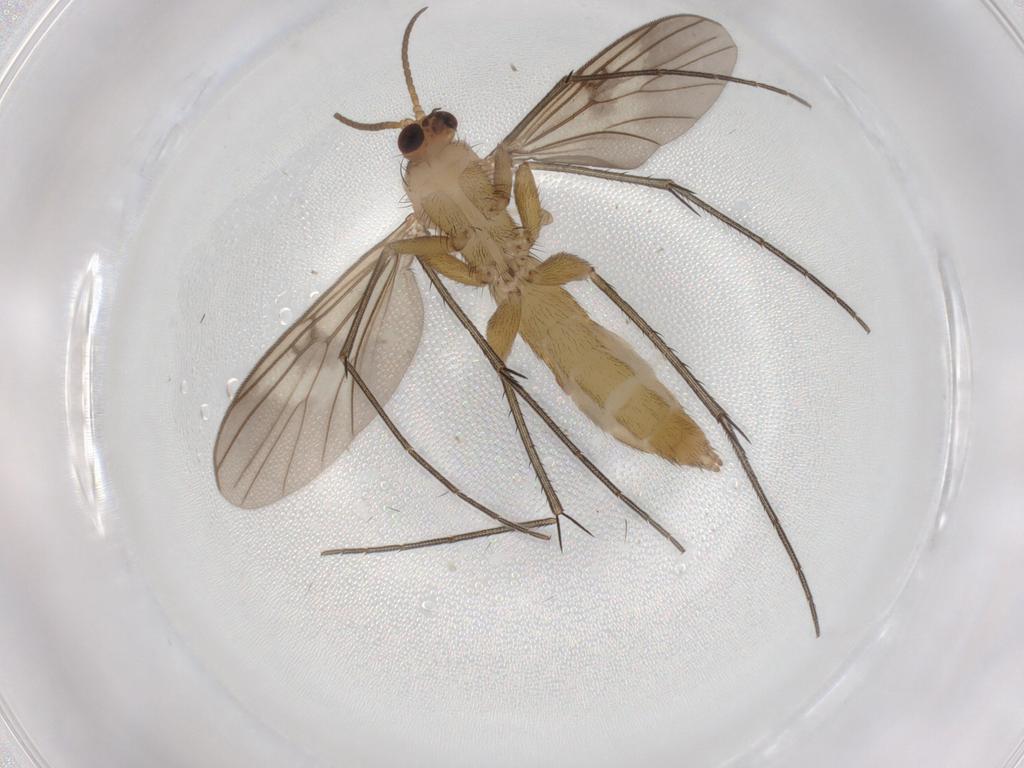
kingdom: Animalia
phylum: Arthropoda
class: Insecta
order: Diptera
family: Mycetophilidae
